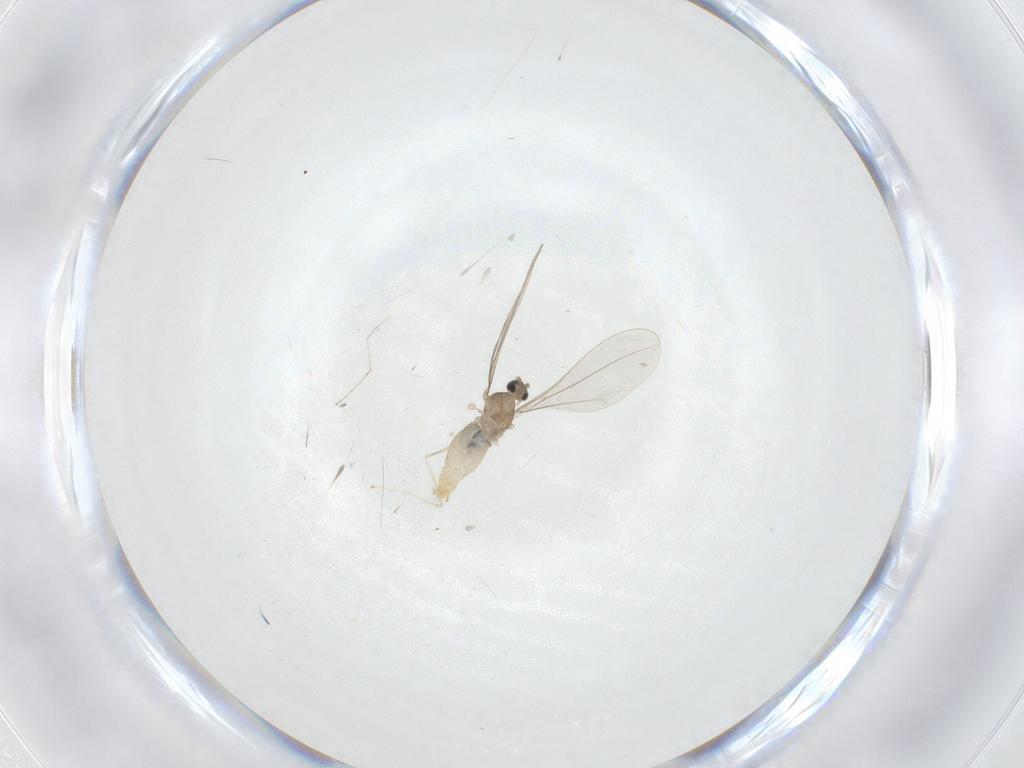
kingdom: Animalia
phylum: Arthropoda
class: Insecta
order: Diptera
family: Cecidomyiidae
